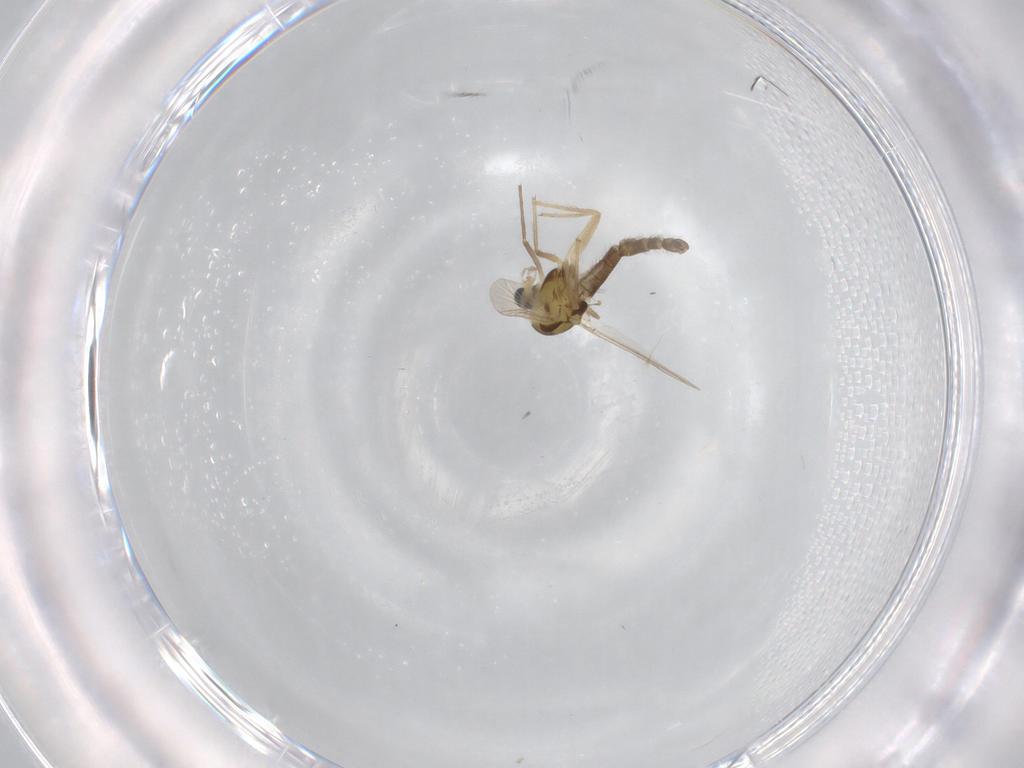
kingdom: Animalia
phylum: Arthropoda
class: Insecta
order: Diptera
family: Chironomidae
